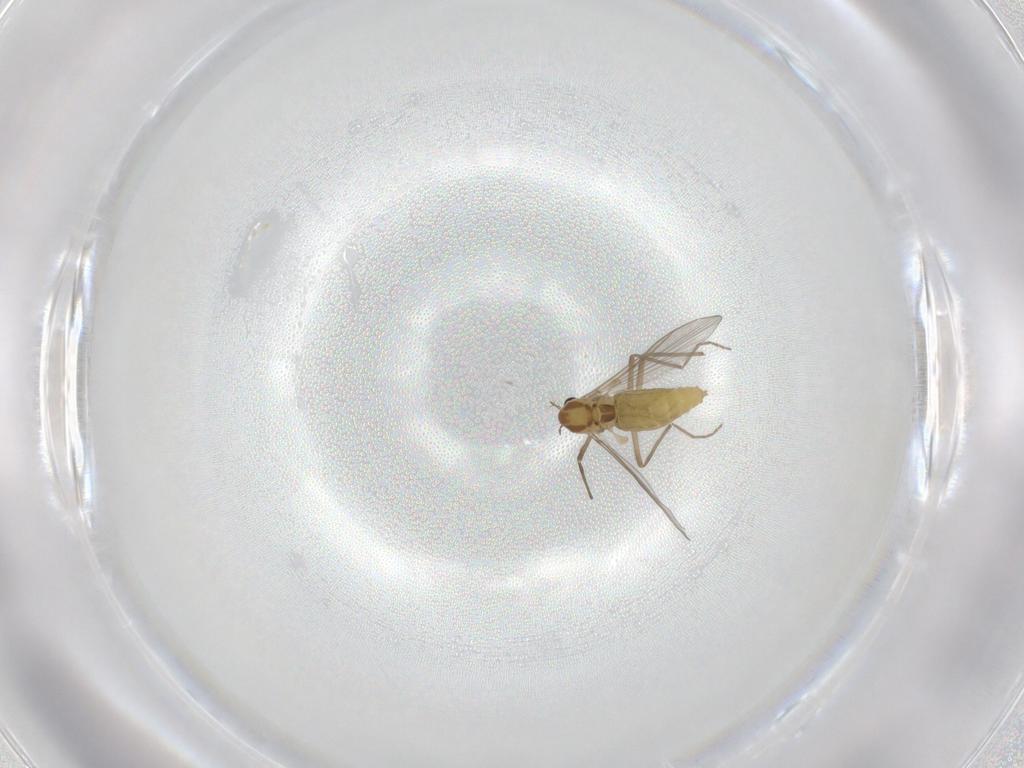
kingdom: Animalia
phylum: Arthropoda
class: Insecta
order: Diptera
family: Chironomidae
